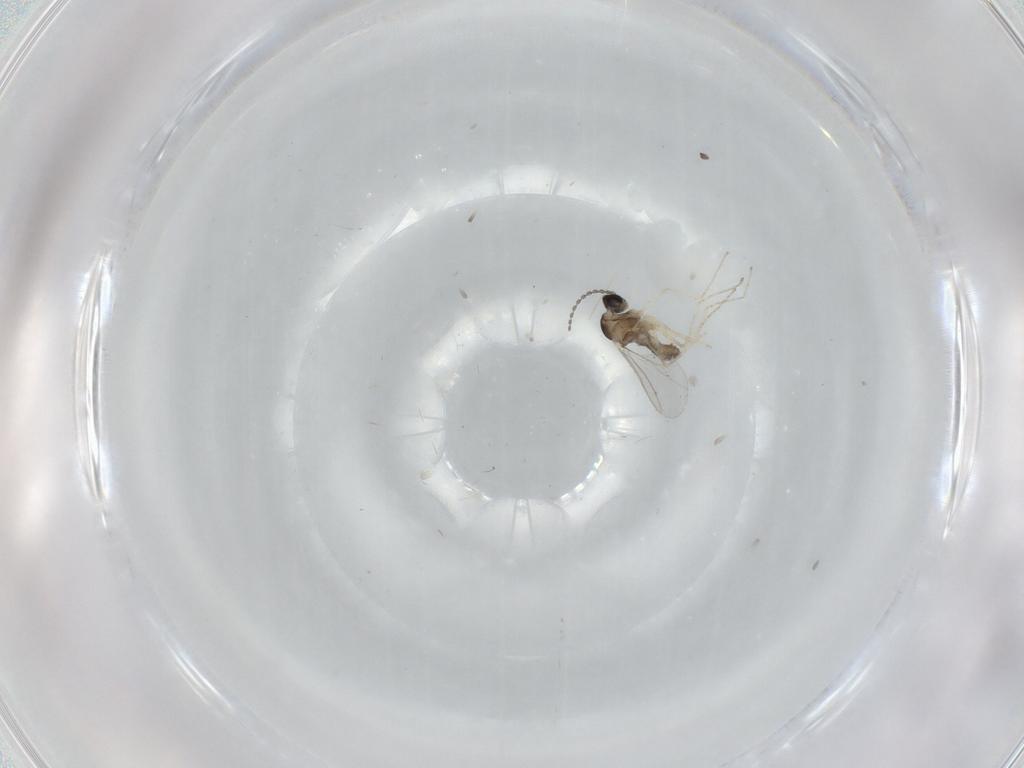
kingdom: Animalia
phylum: Arthropoda
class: Insecta
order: Diptera
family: Cecidomyiidae
